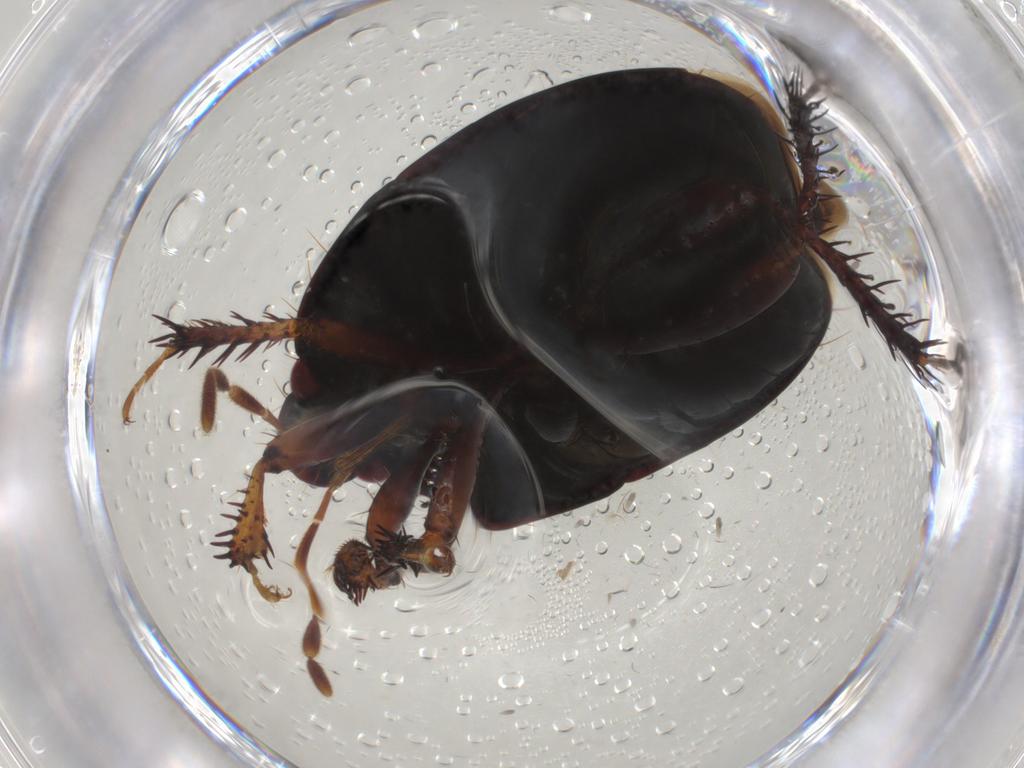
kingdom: Animalia
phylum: Arthropoda
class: Insecta
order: Hemiptera
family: Cydnidae
